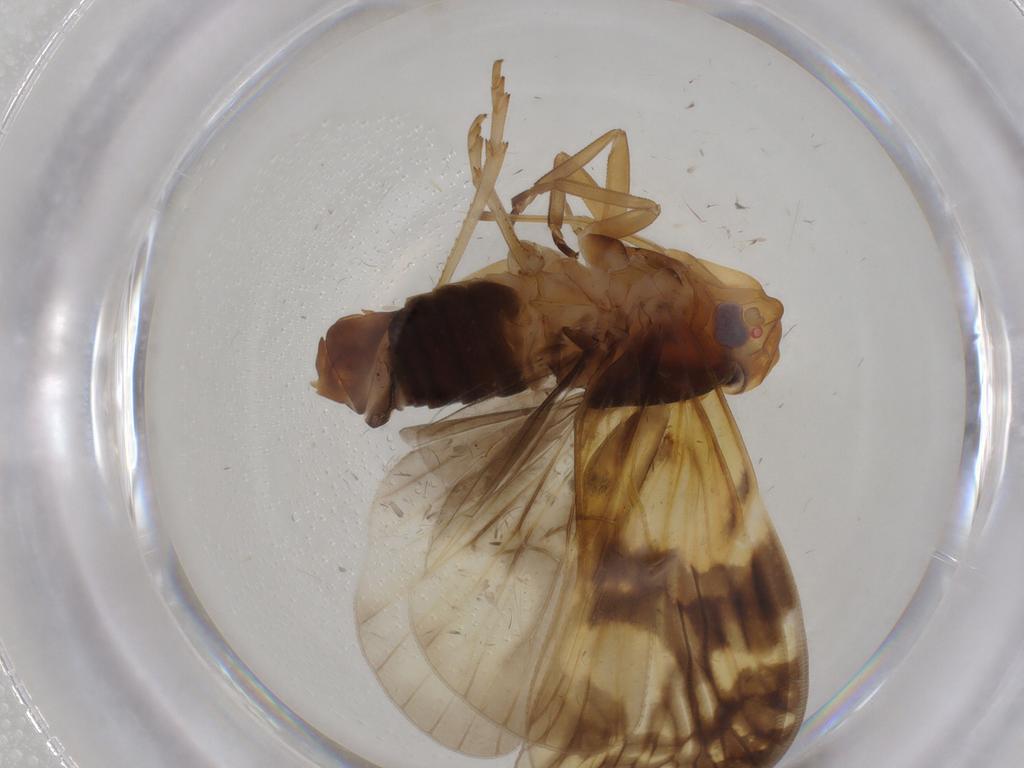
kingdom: Animalia
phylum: Arthropoda
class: Insecta
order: Hemiptera
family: Cixiidae
